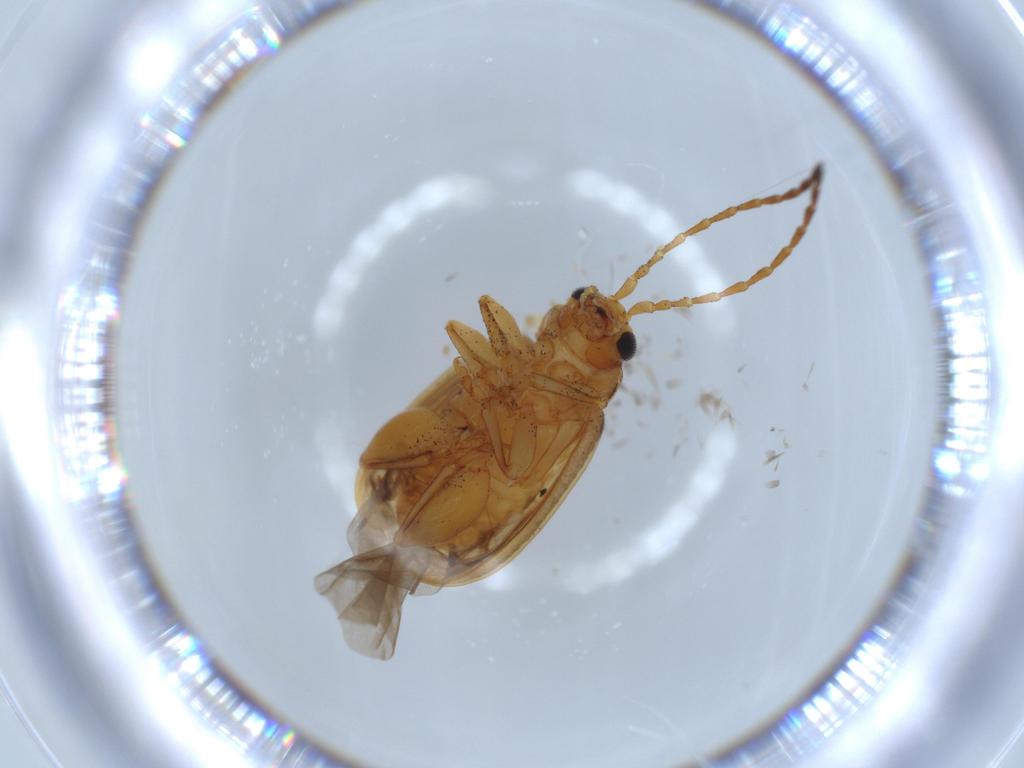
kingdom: Animalia
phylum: Arthropoda
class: Insecta
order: Coleoptera
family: Chrysomelidae
